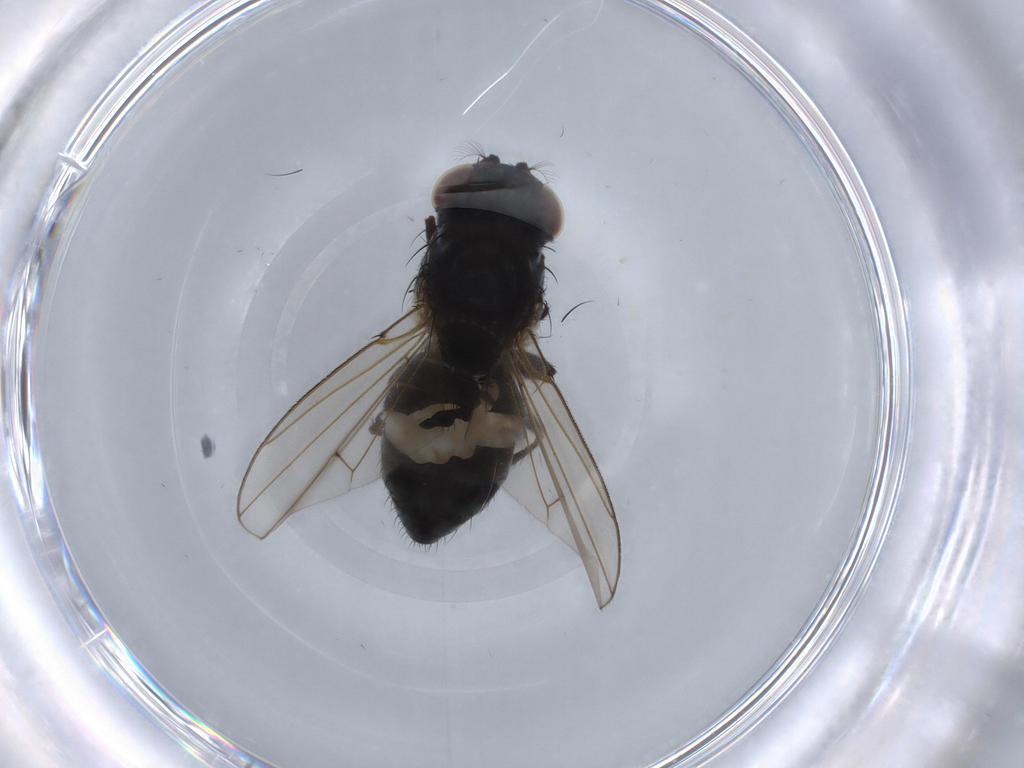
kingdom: Animalia
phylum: Arthropoda
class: Insecta
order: Diptera
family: Ephydridae
